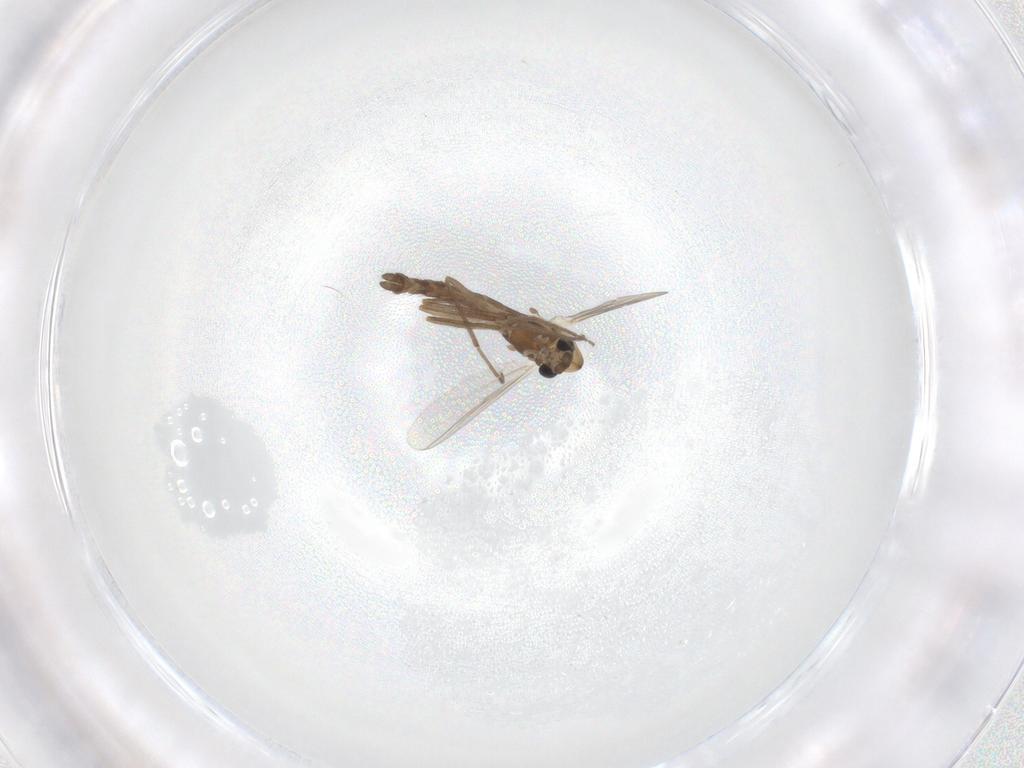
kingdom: Animalia
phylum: Arthropoda
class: Insecta
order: Diptera
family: Chironomidae
